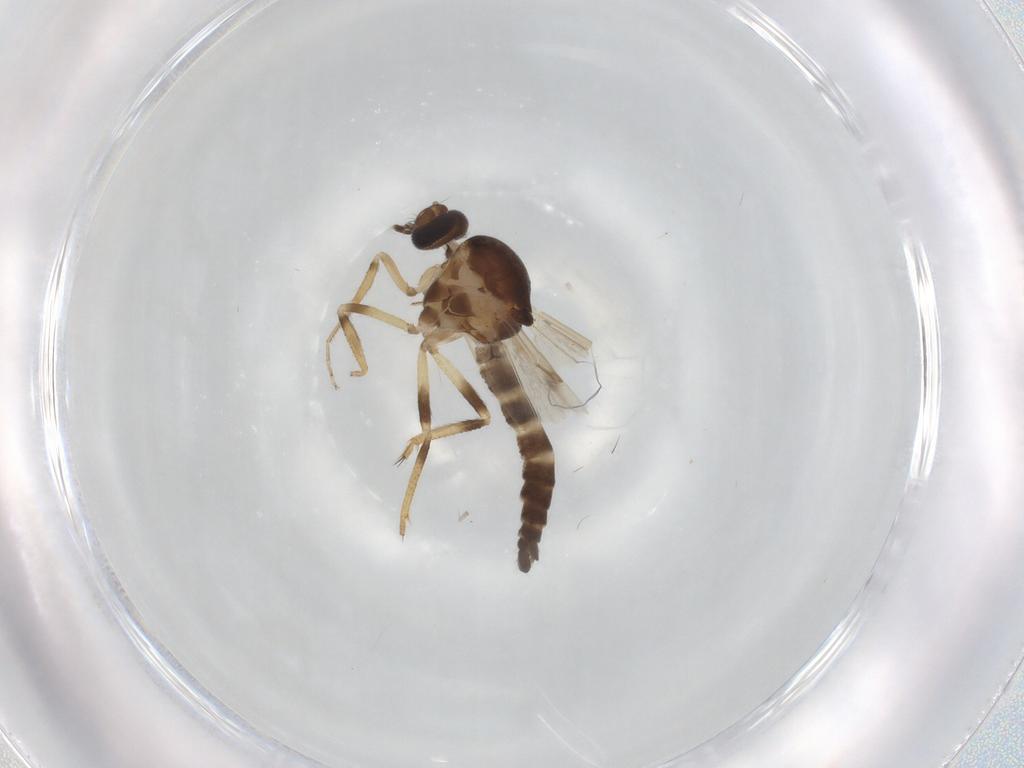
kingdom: Animalia
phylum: Arthropoda
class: Insecta
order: Diptera
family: Ceratopogonidae
